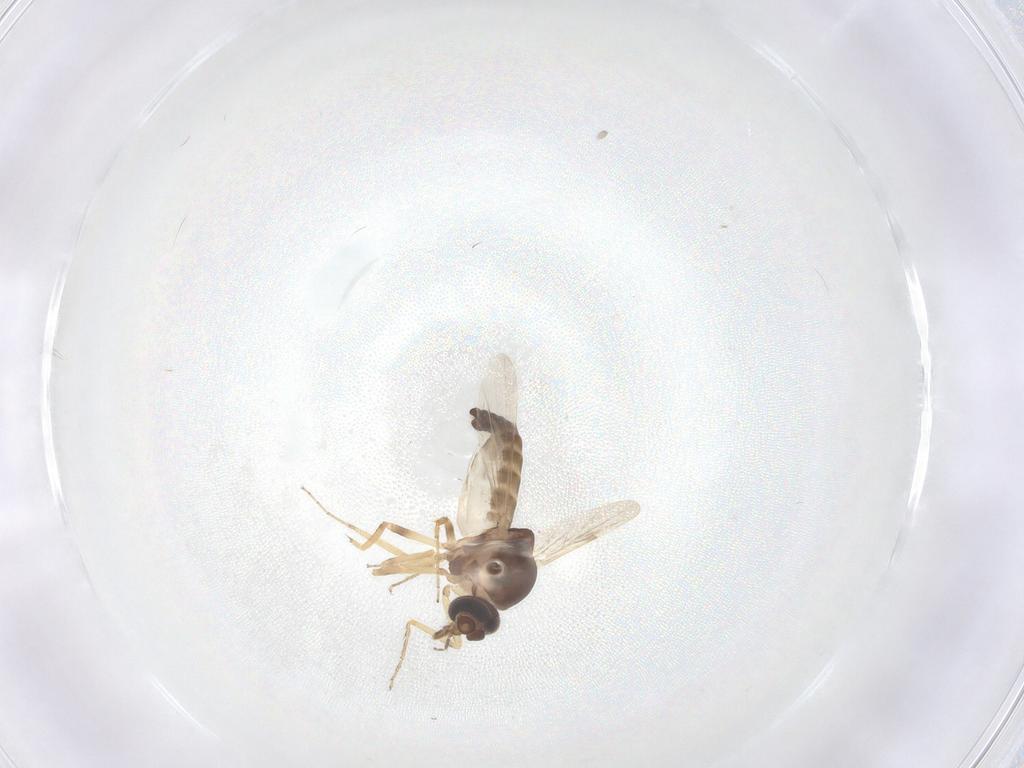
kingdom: Animalia
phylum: Arthropoda
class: Insecta
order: Diptera
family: Ceratopogonidae
